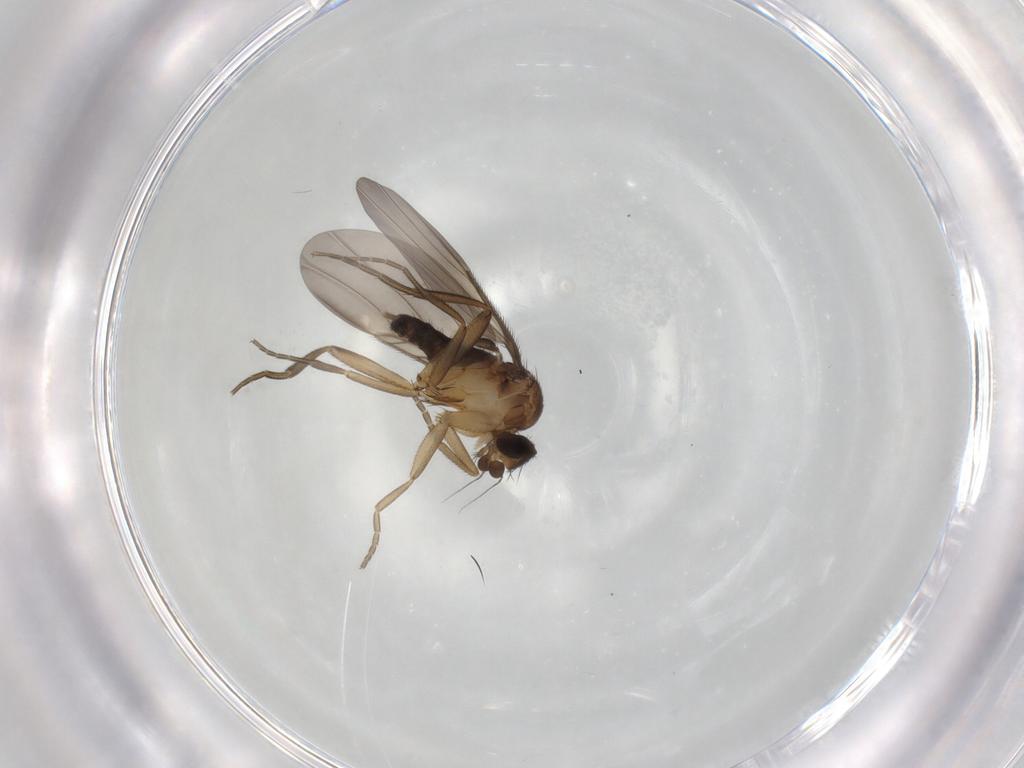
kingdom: Animalia
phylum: Arthropoda
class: Insecta
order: Diptera
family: Phoridae
